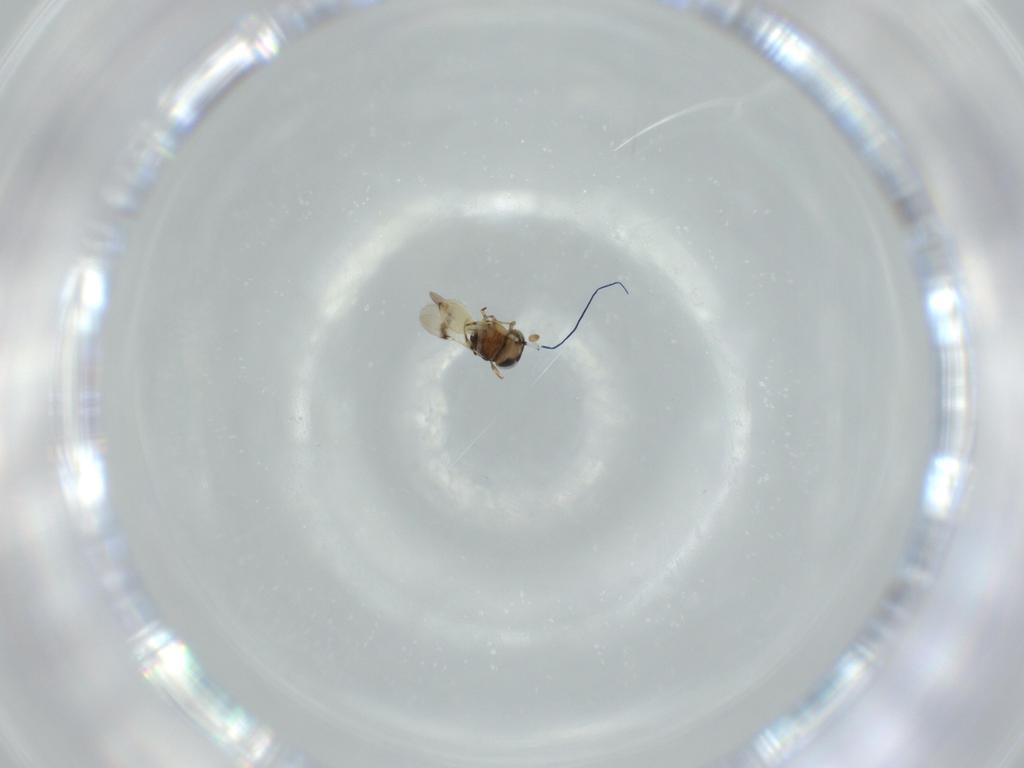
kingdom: Animalia
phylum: Arthropoda
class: Insecta
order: Hymenoptera
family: Scelionidae
